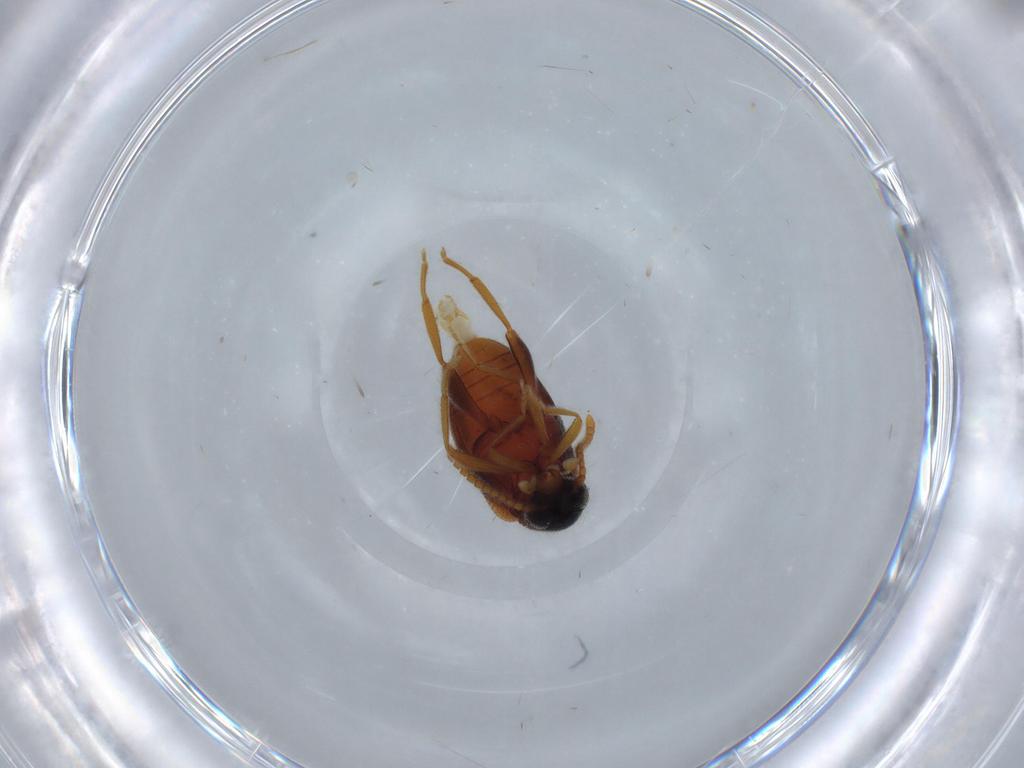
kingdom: Animalia
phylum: Arthropoda
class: Insecta
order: Coleoptera
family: Aderidae
